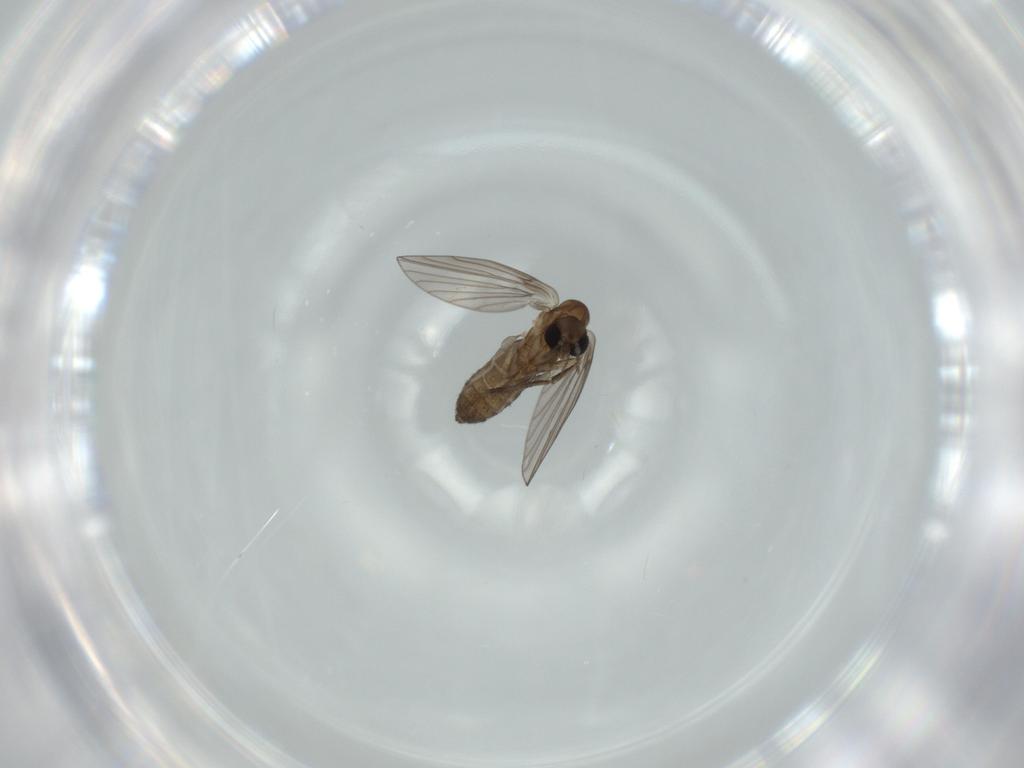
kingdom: Animalia
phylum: Arthropoda
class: Insecta
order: Diptera
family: Psychodidae
